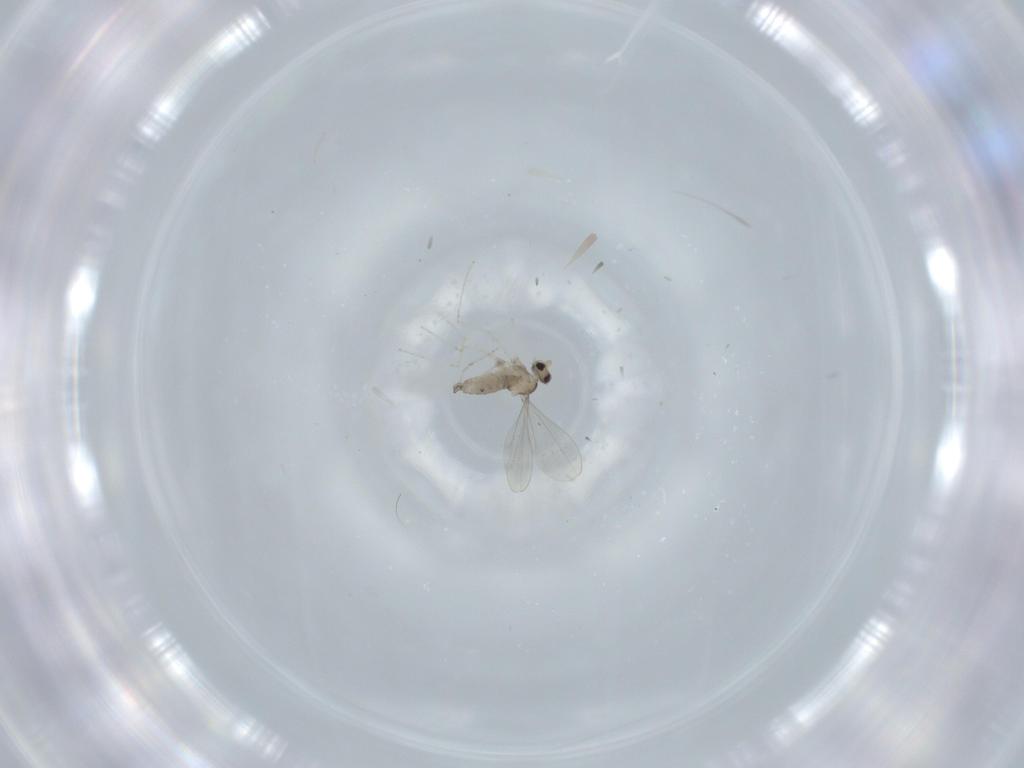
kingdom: Animalia
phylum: Arthropoda
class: Insecta
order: Diptera
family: Cecidomyiidae
